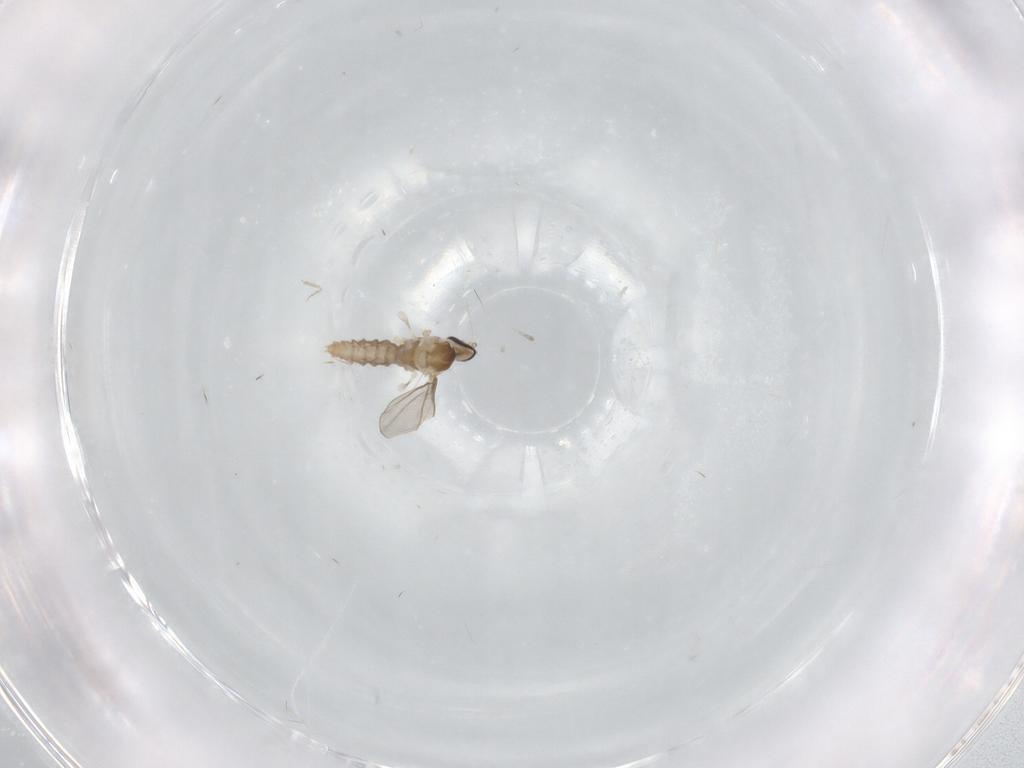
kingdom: Animalia
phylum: Arthropoda
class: Insecta
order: Diptera
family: Cecidomyiidae
